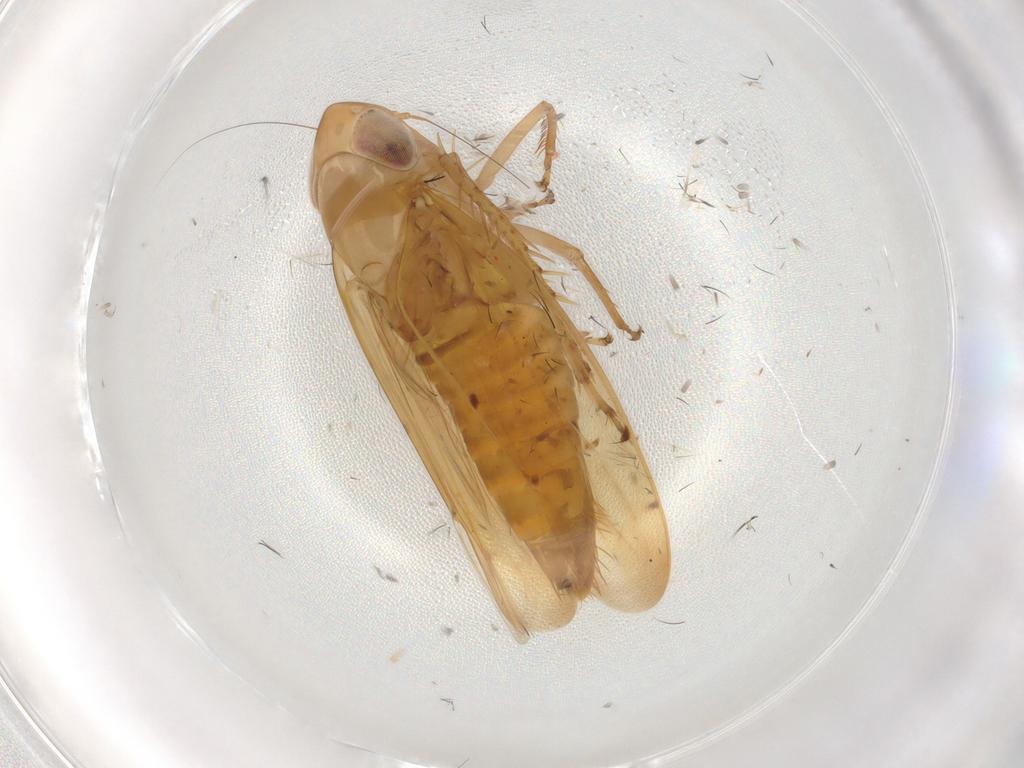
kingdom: Animalia
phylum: Arthropoda
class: Insecta
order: Hemiptera
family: Cicadellidae
